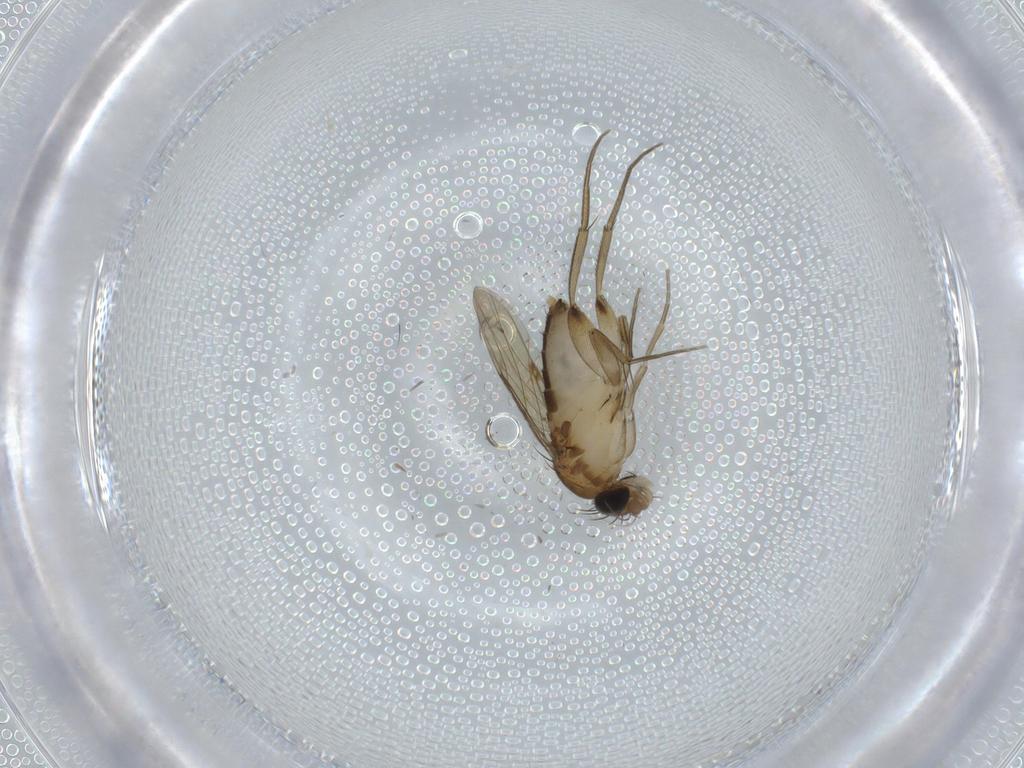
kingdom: Animalia
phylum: Arthropoda
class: Insecta
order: Diptera
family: Phoridae
